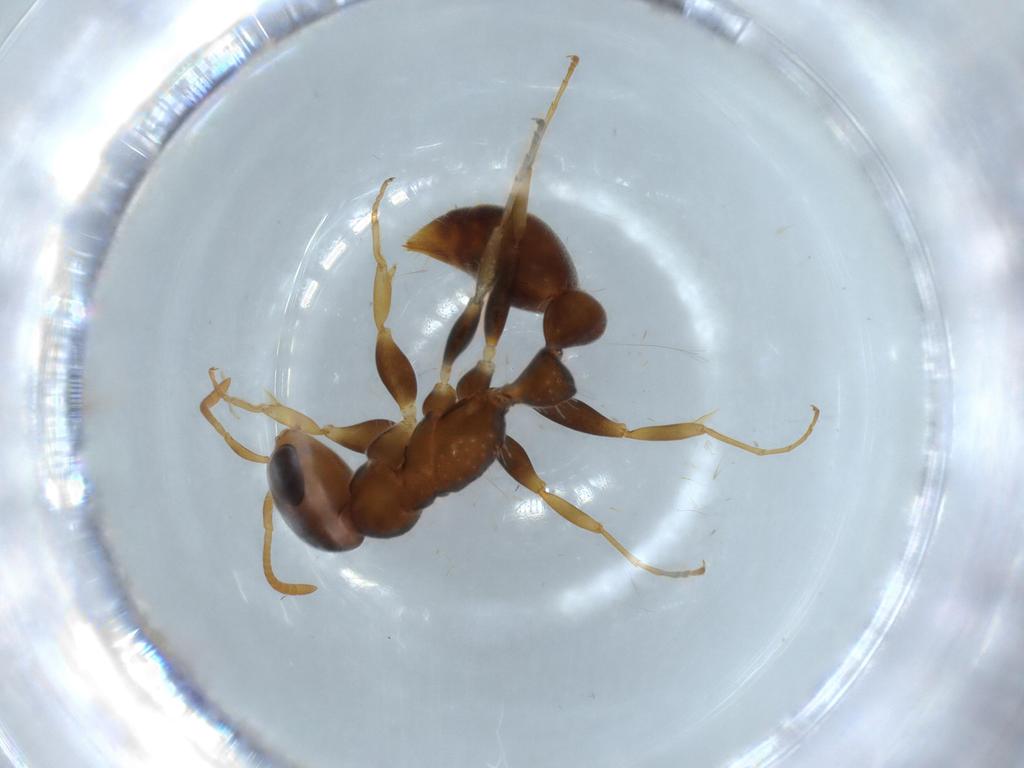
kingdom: Animalia
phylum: Arthropoda
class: Insecta
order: Hymenoptera
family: Formicidae
